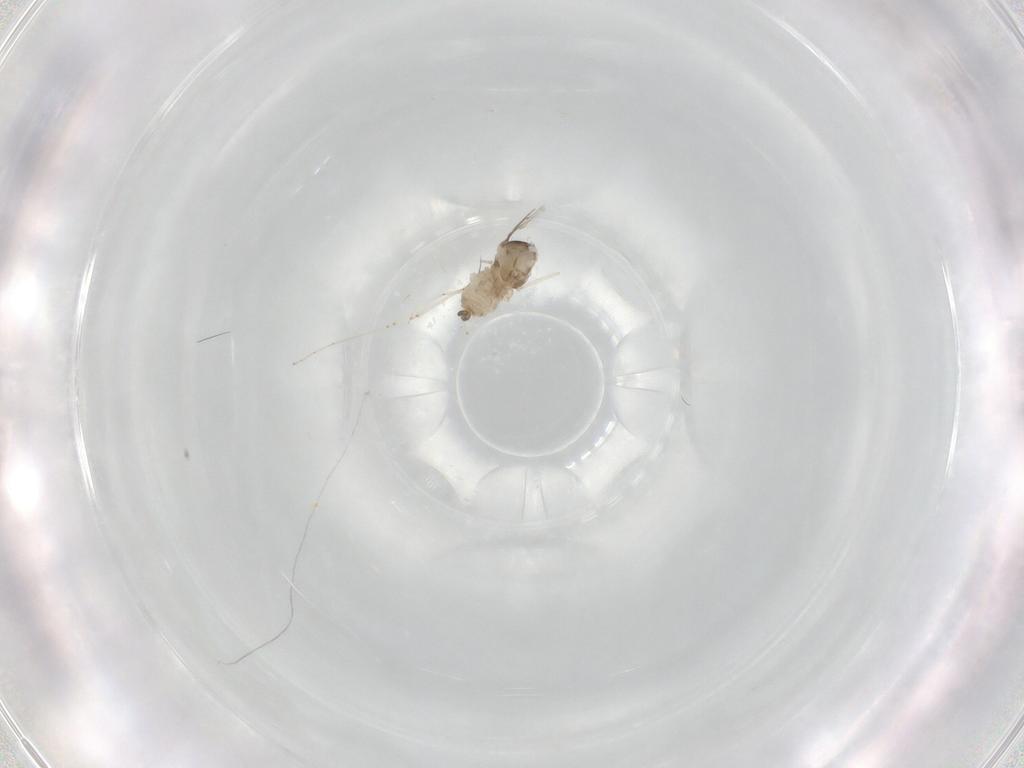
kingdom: Animalia
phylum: Arthropoda
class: Insecta
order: Diptera
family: Cecidomyiidae
